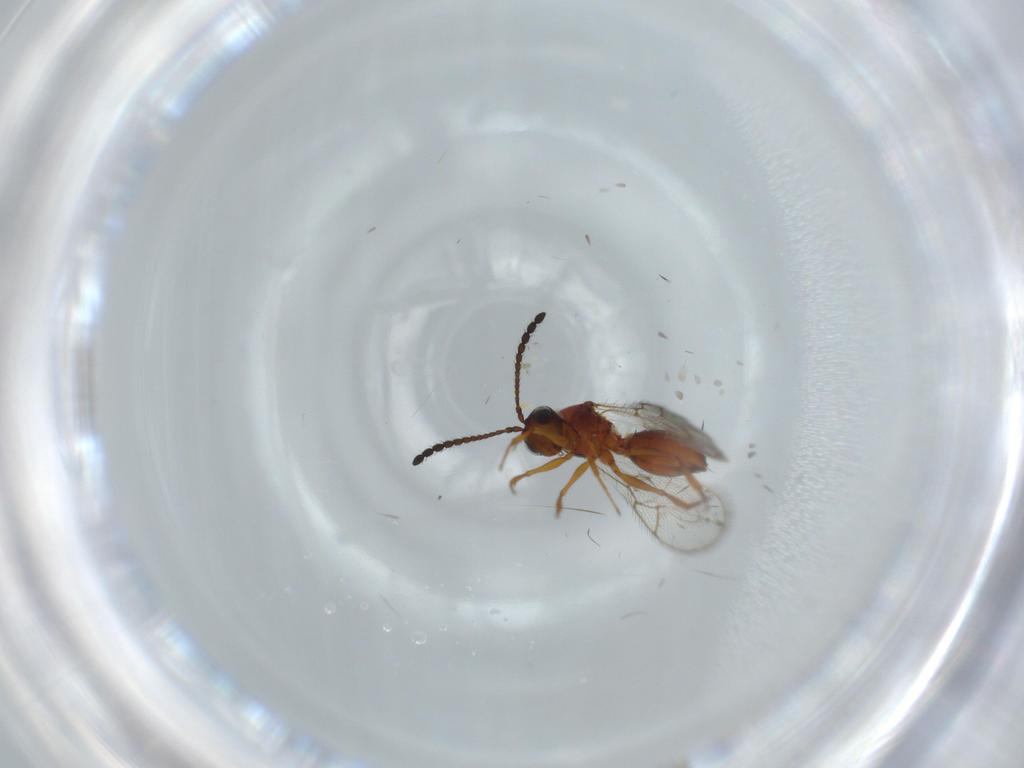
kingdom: Animalia
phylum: Arthropoda
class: Insecta
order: Hymenoptera
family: Figitidae
